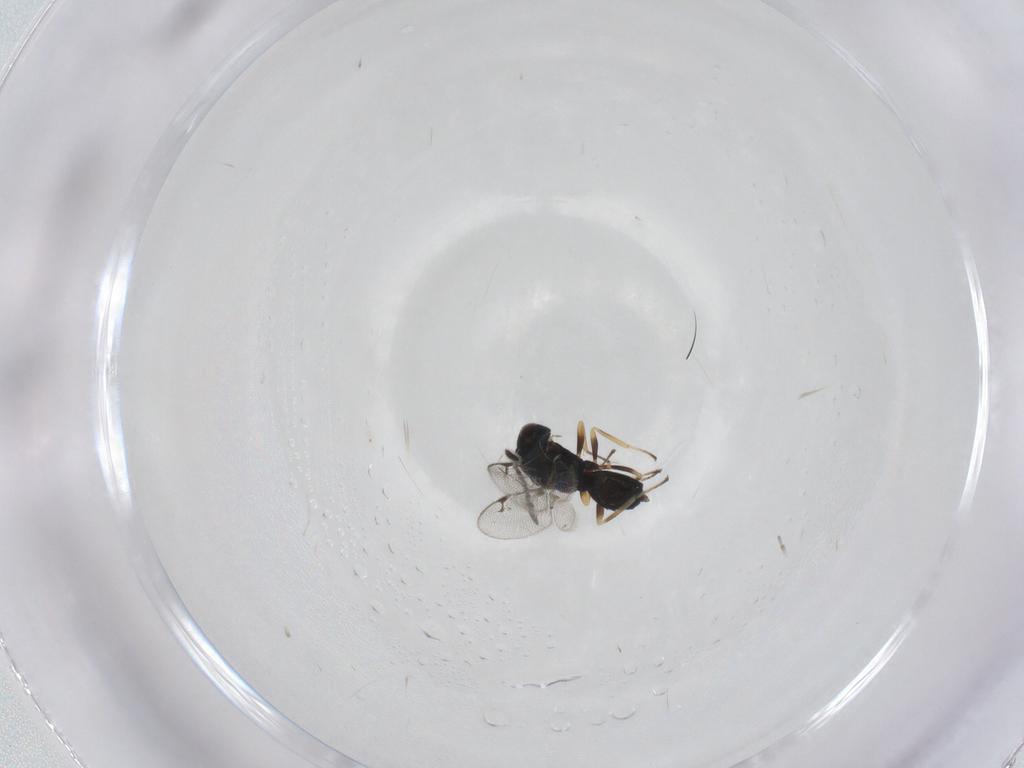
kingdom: Animalia
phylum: Arthropoda
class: Insecta
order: Hymenoptera
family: Pteromalidae
